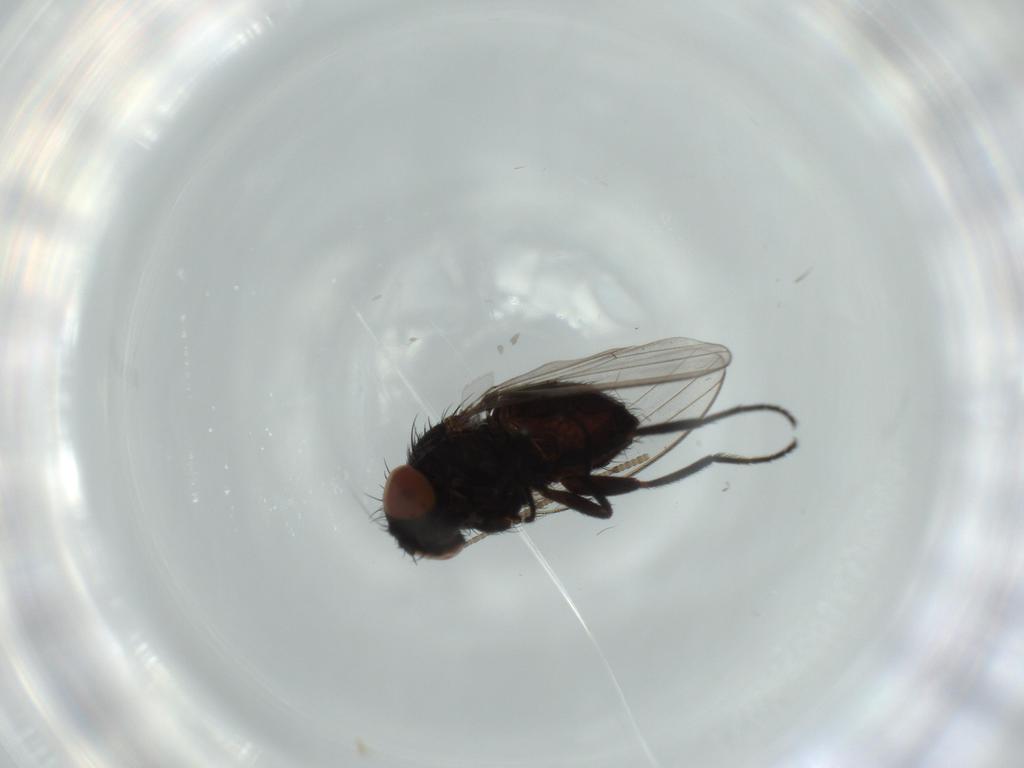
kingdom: Animalia
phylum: Arthropoda
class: Insecta
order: Diptera
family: Milichiidae
